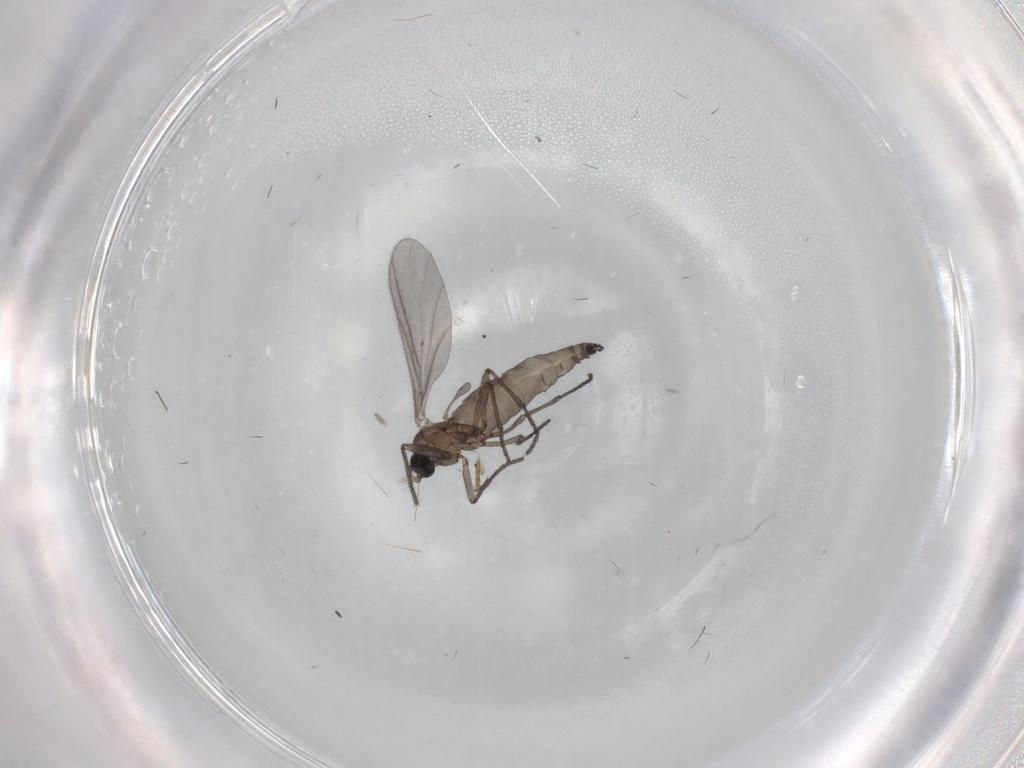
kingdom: Animalia
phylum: Arthropoda
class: Insecta
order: Diptera
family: Sciaridae
